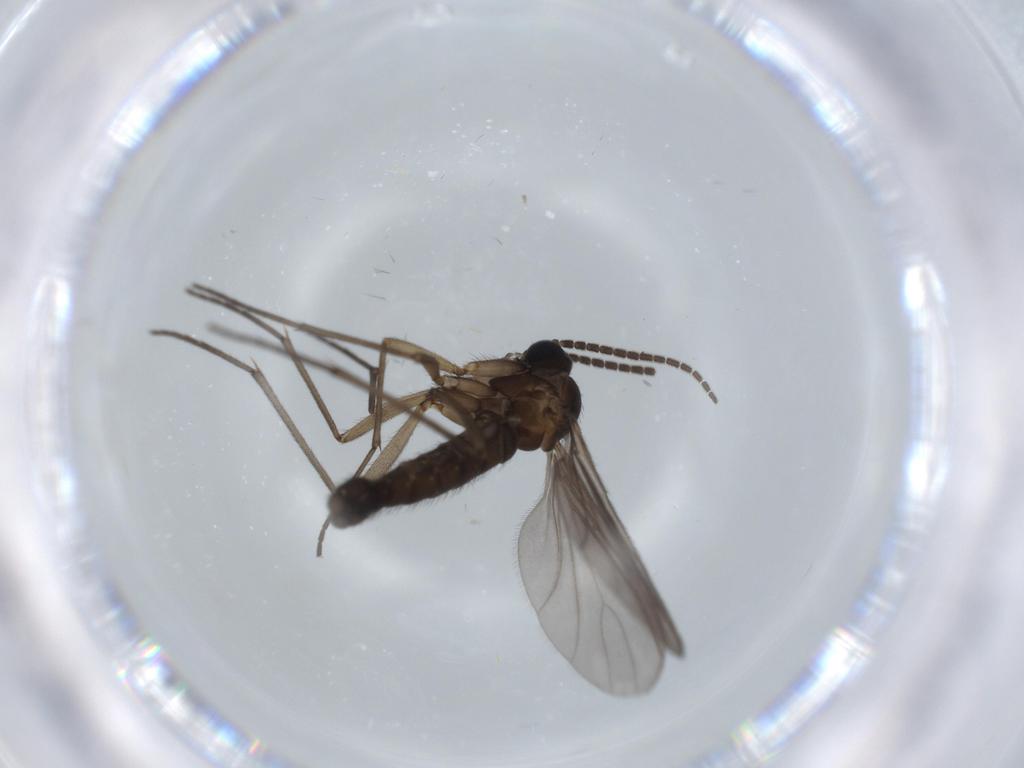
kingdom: Animalia
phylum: Arthropoda
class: Insecta
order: Diptera
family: Sciaridae
